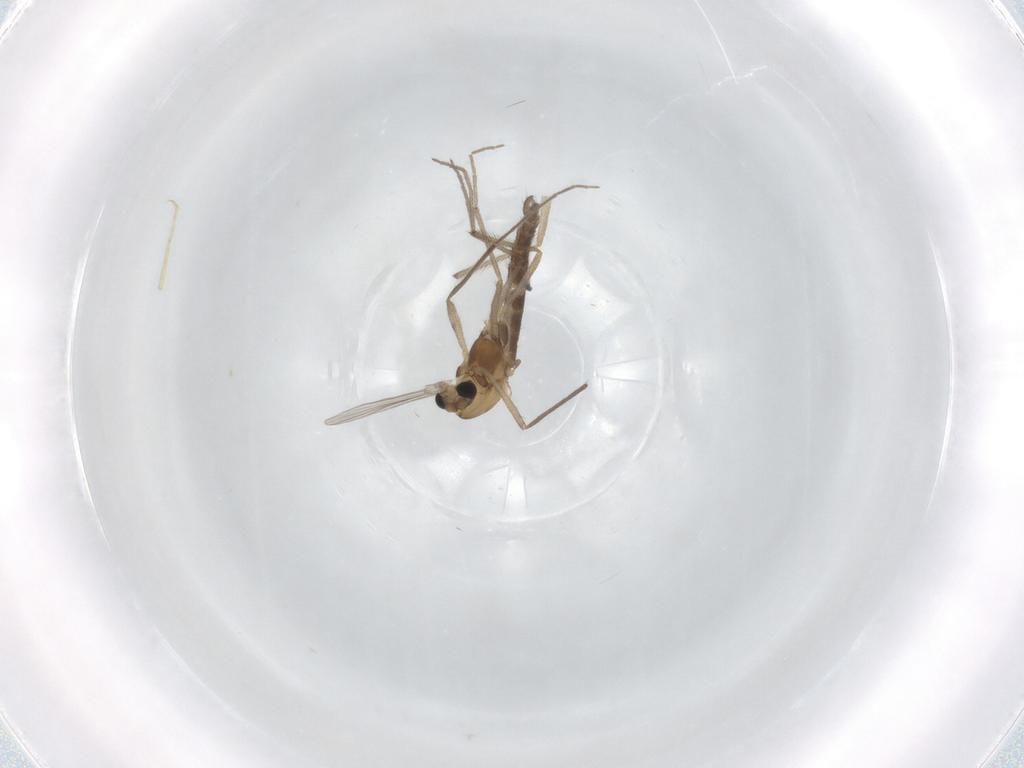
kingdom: Animalia
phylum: Arthropoda
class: Insecta
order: Diptera
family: Chironomidae
